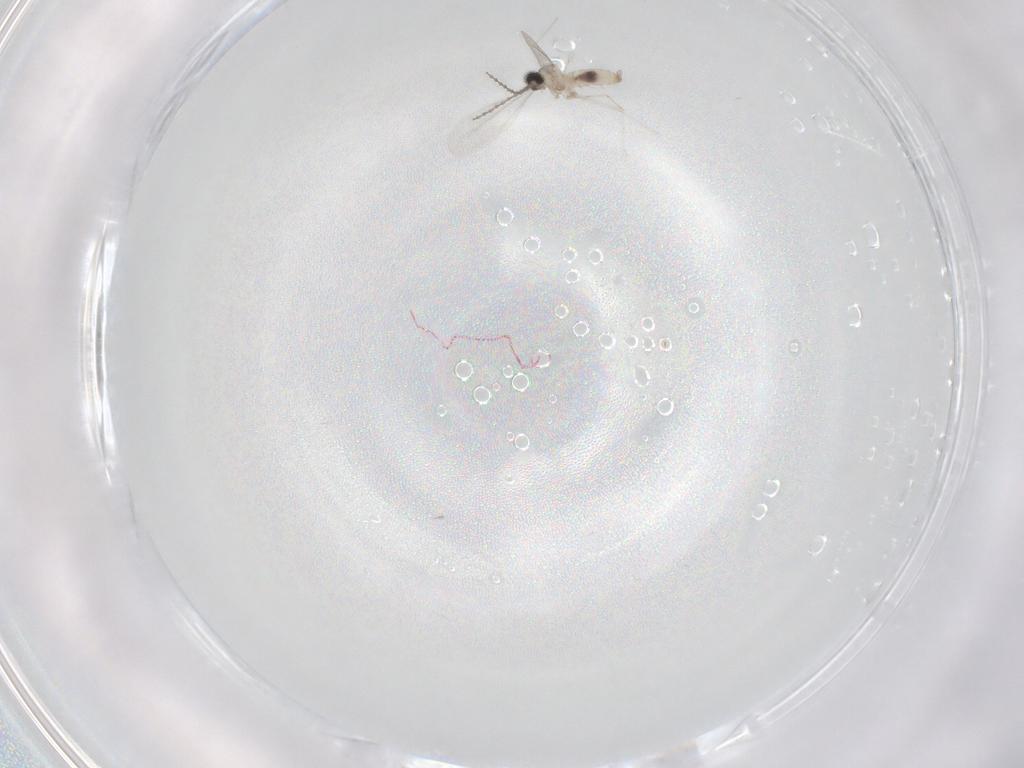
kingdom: Animalia
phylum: Arthropoda
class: Insecta
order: Diptera
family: Cecidomyiidae
